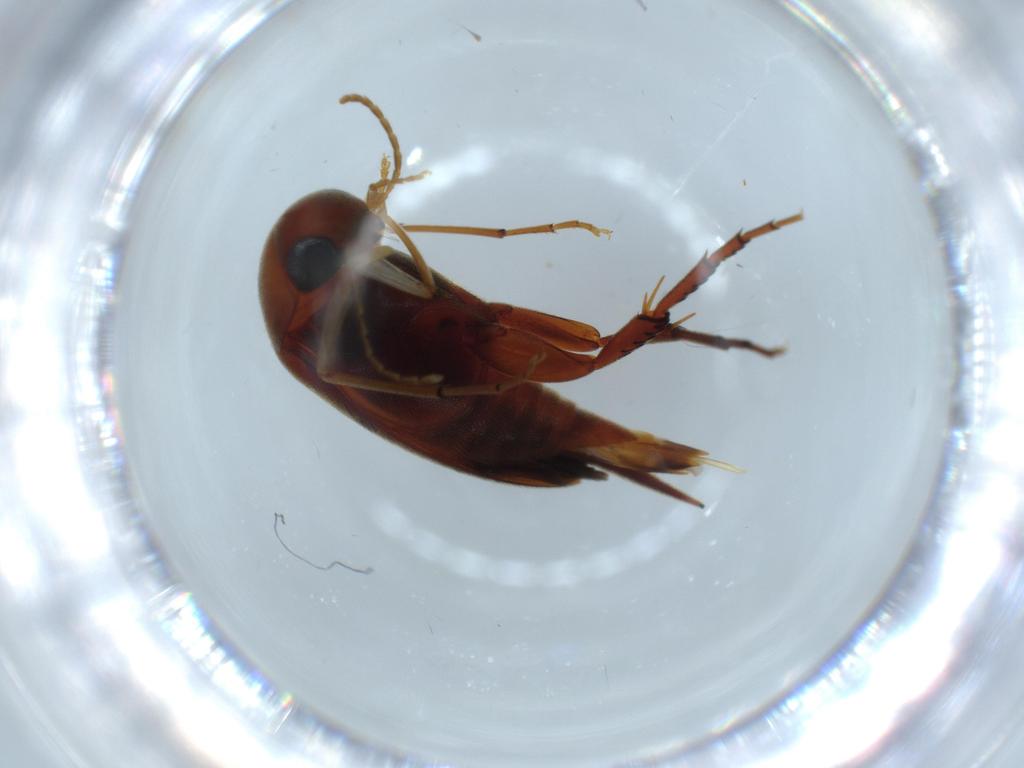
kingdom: Animalia
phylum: Arthropoda
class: Insecta
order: Coleoptera
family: Mordellidae
